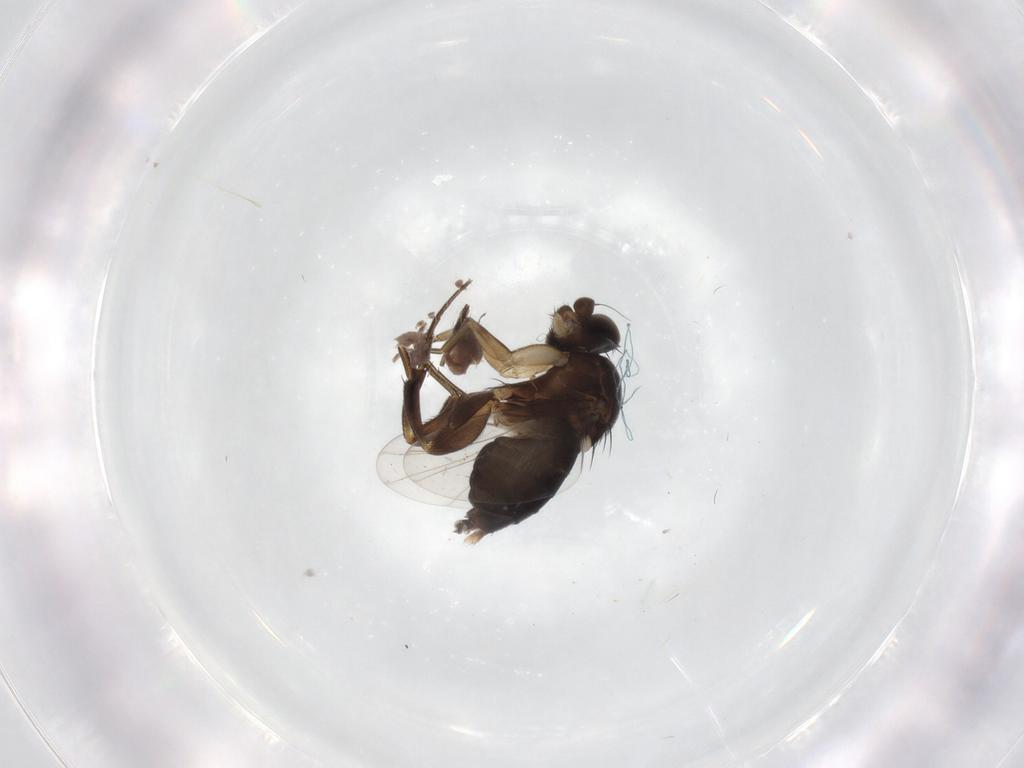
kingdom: Animalia
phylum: Arthropoda
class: Insecta
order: Diptera
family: Phoridae
